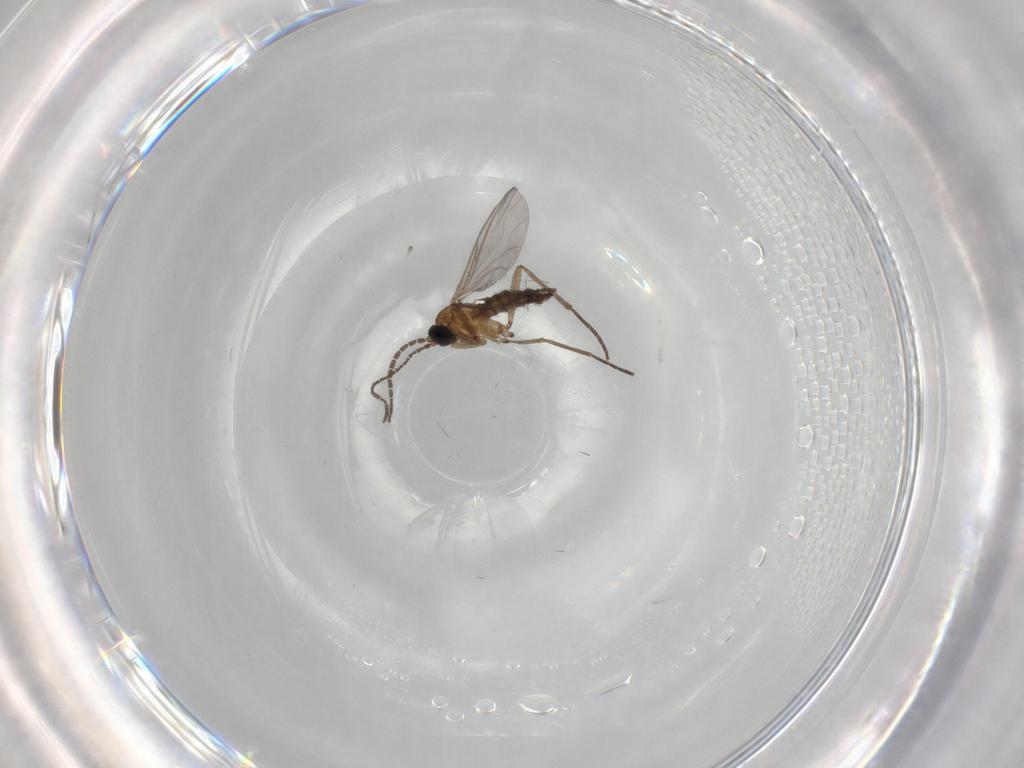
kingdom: Animalia
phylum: Arthropoda
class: Insecta
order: Diptera
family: Sciaridae
